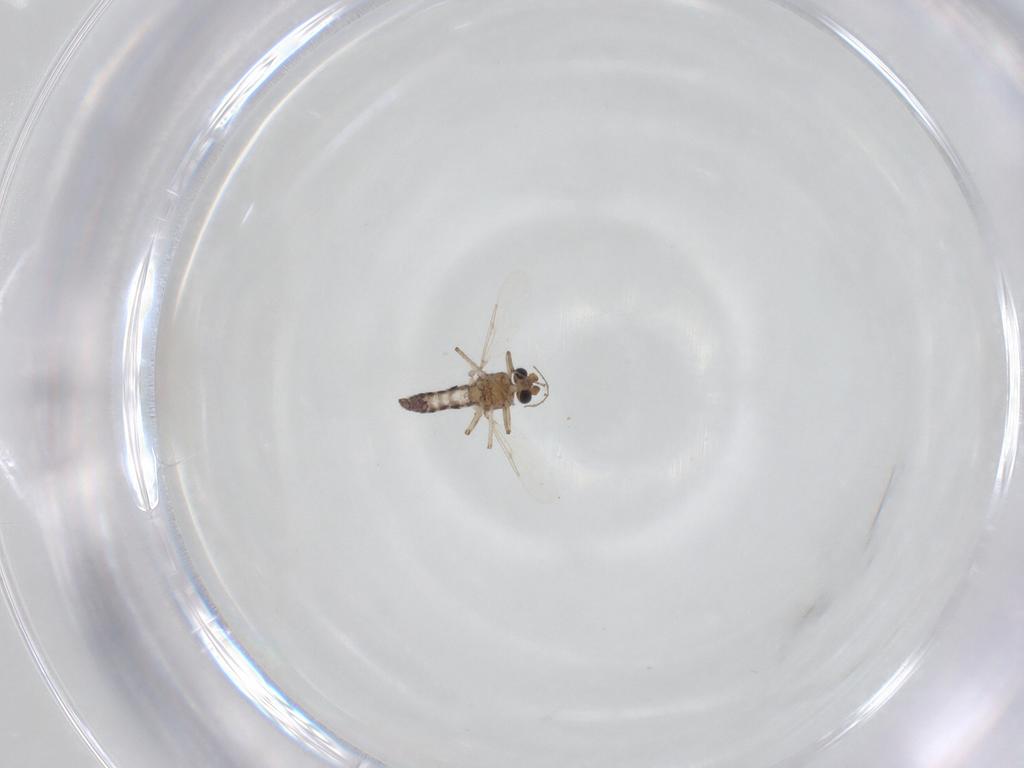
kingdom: Animalia
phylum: Arthropoda
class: Insecta
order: Diptera
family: Ceratopogonidae
